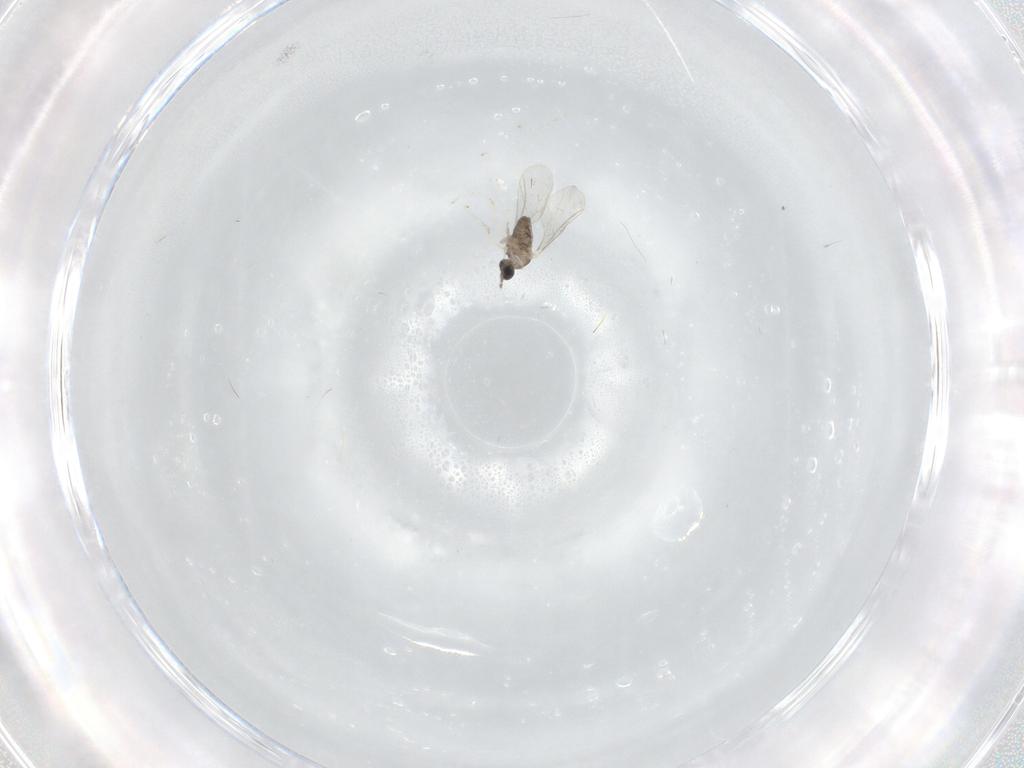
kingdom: Animalia
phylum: Arthropoda
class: Insecta
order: Diptera
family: Cecidomyiidae
